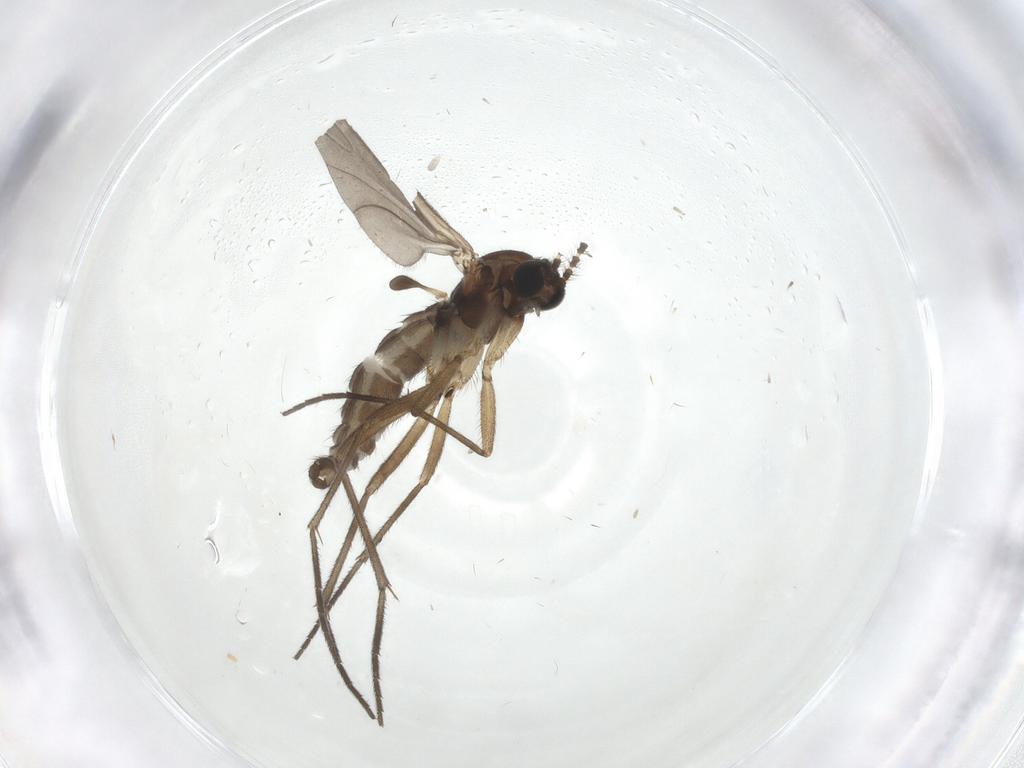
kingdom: Animalia
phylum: Arthropoda
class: Insecta
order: Diptera
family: Sciaridae
